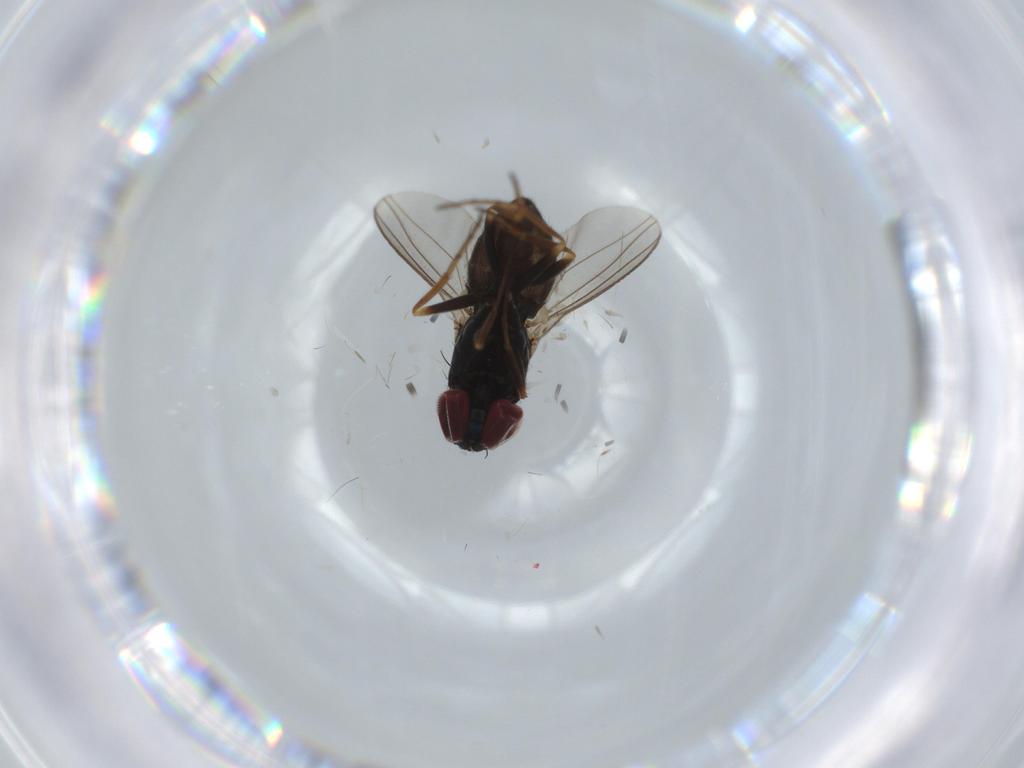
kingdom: Animalia
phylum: Arthropoda
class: Insecta
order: Diptera
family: Dolichopodidae
